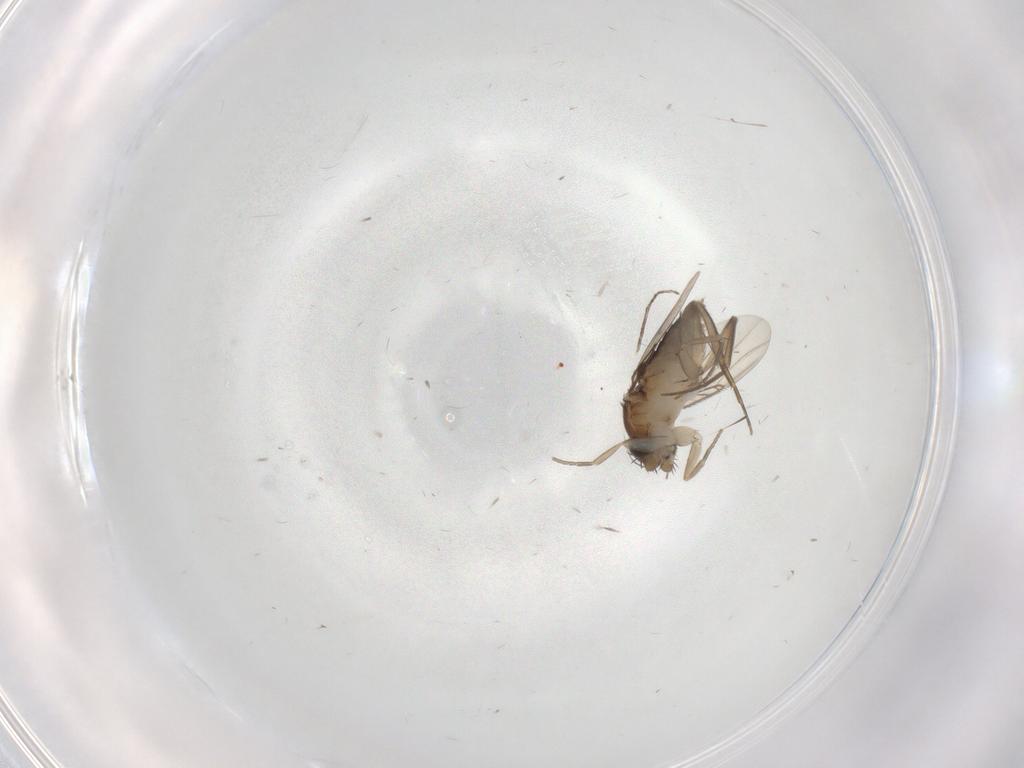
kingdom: Animalia
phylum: Arthropoda
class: Insecta
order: Diptera
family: Phoridae
